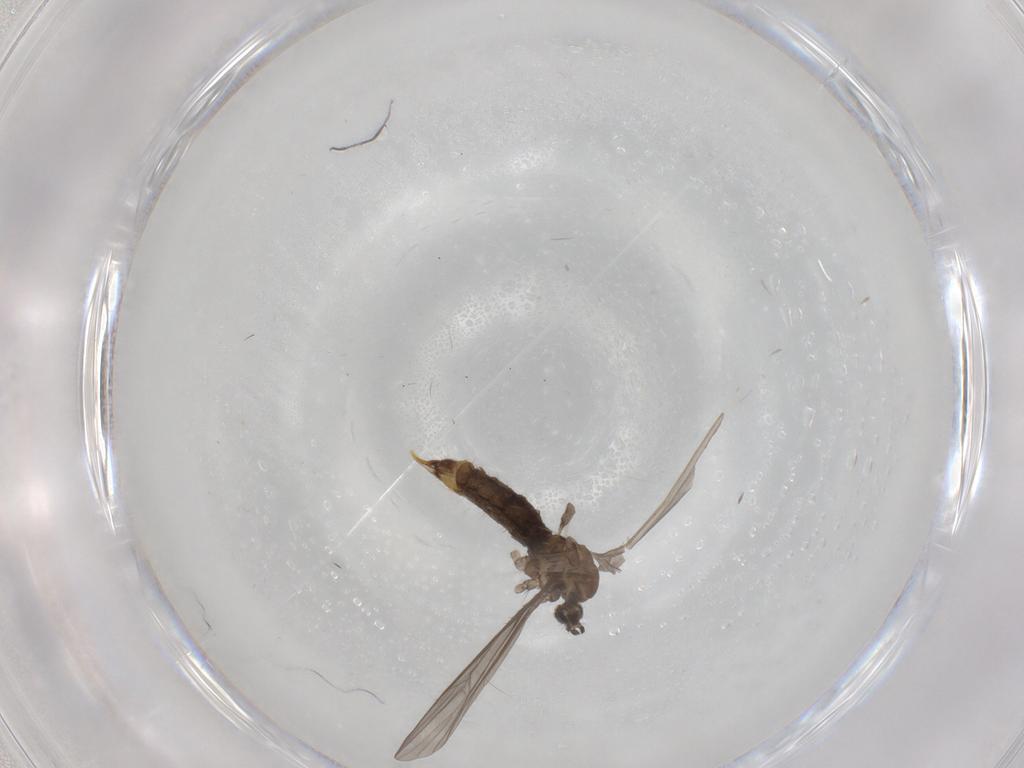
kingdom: Animalia
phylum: Arthropoda
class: Insecta
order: Diptera
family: Limoniidae
